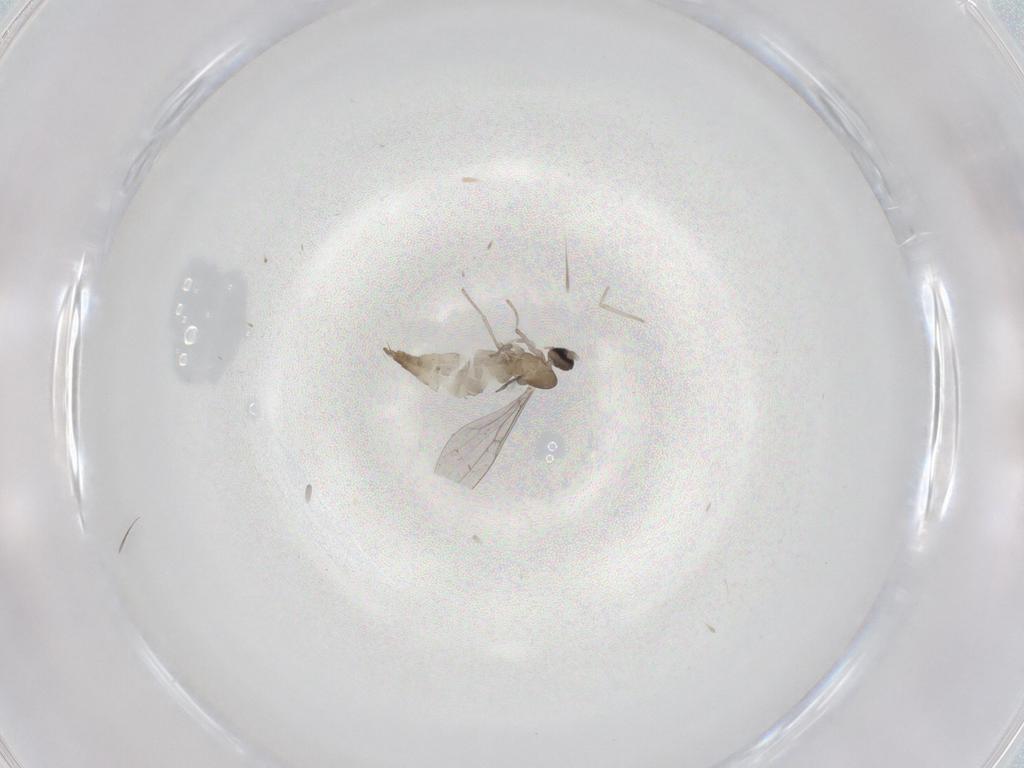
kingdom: Animalia
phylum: Arthropoda
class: Insecta
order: Diptera
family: Cecidomyiidae
